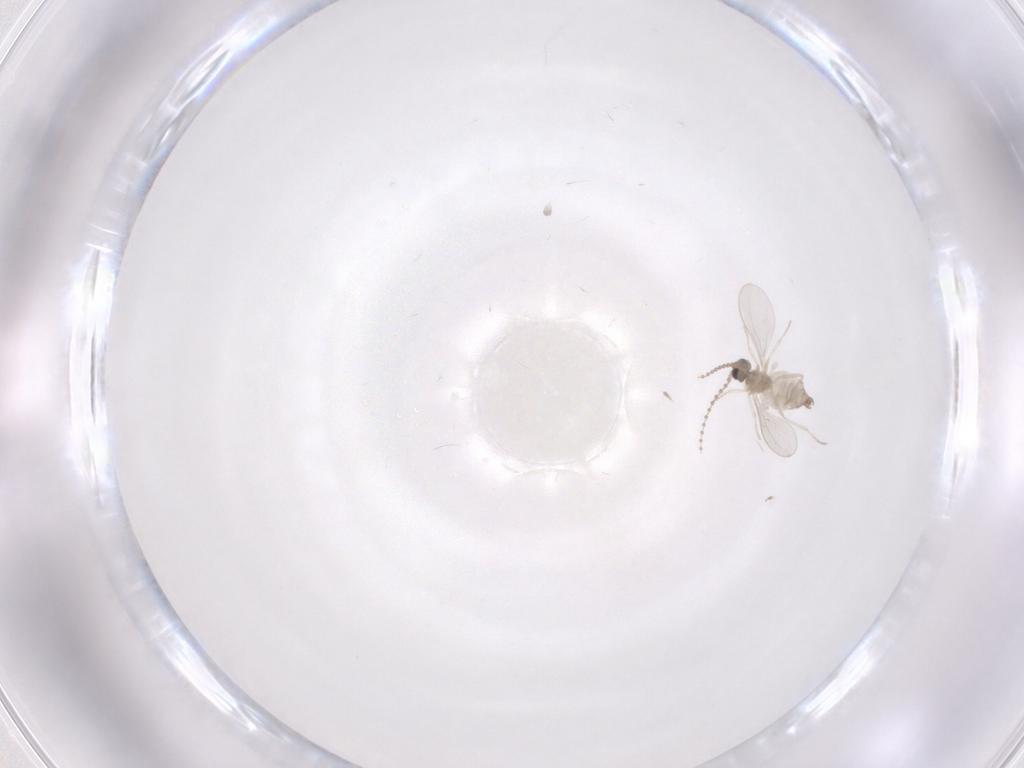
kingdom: Animalia
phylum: Arthropoda
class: Insecta
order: Diptera
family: Cecidomyiidae
